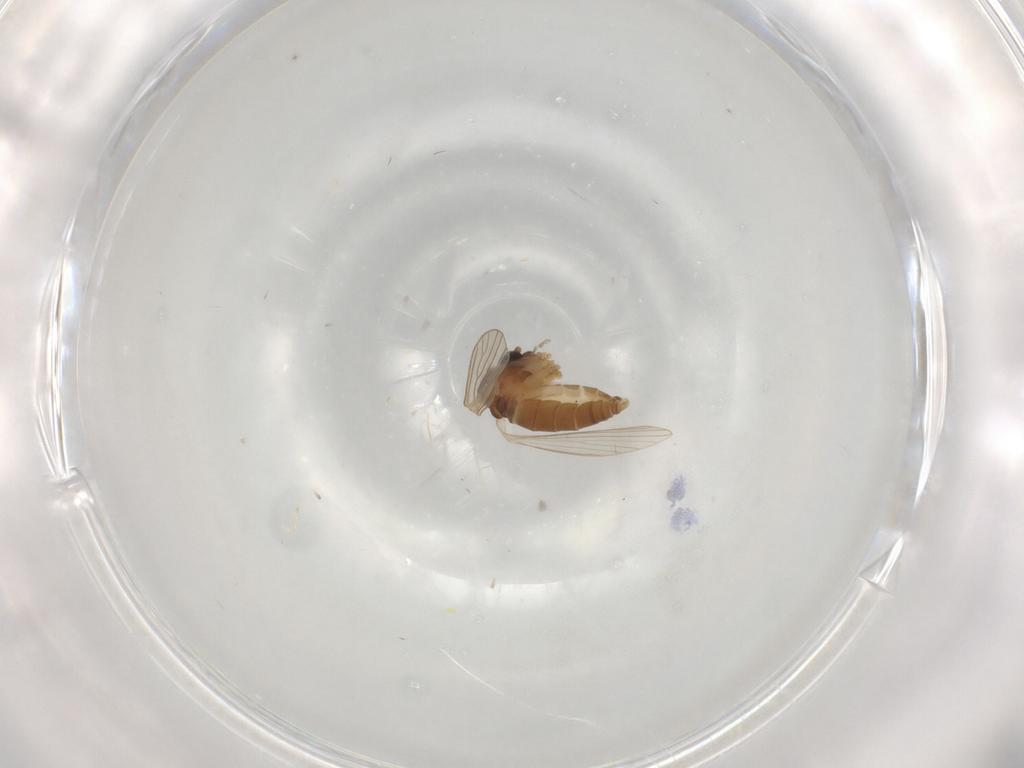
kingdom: Animalia
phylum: Arthropoda
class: Insecta
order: Diptera
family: Psychodidae
